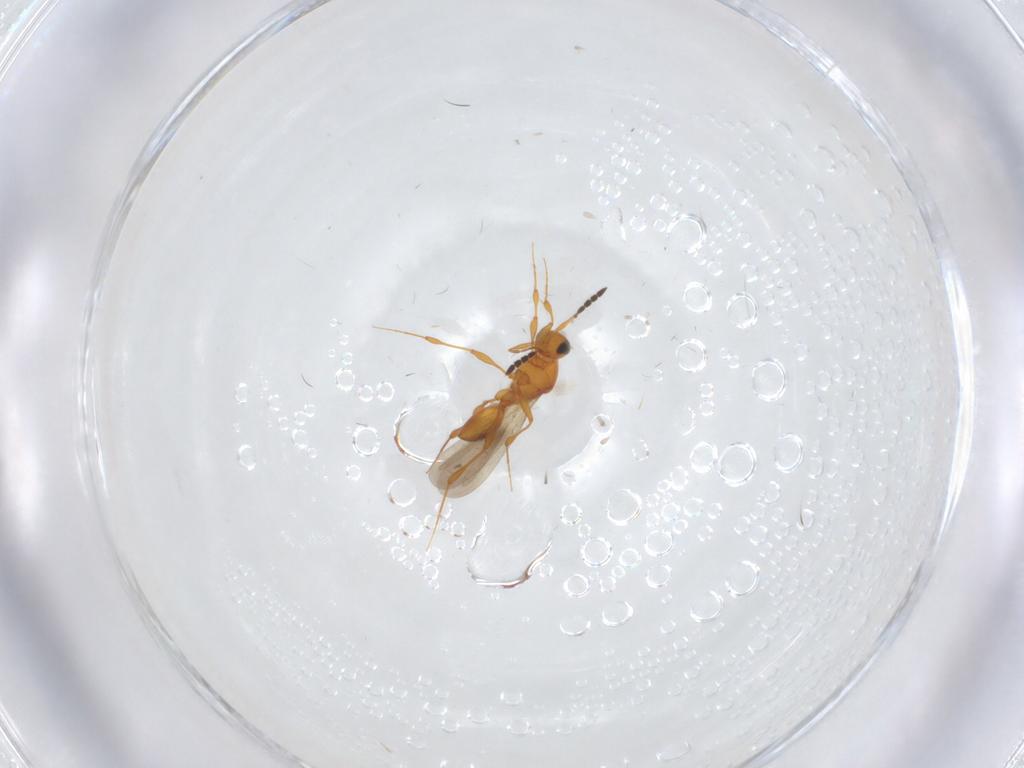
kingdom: Animalia
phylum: Arthropoda
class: Insecta
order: Hymenoptera
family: Platygastridae
